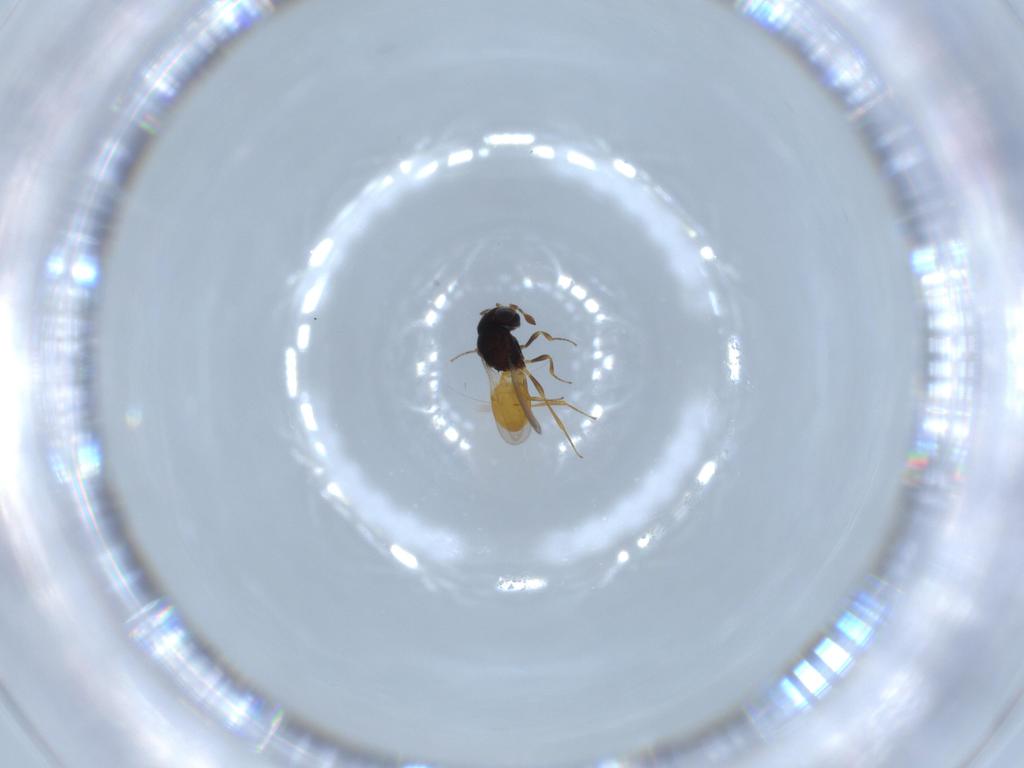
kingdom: Animalia
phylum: Arthropoda
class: Insecta
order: Hymenoptera
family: Scelionidae
